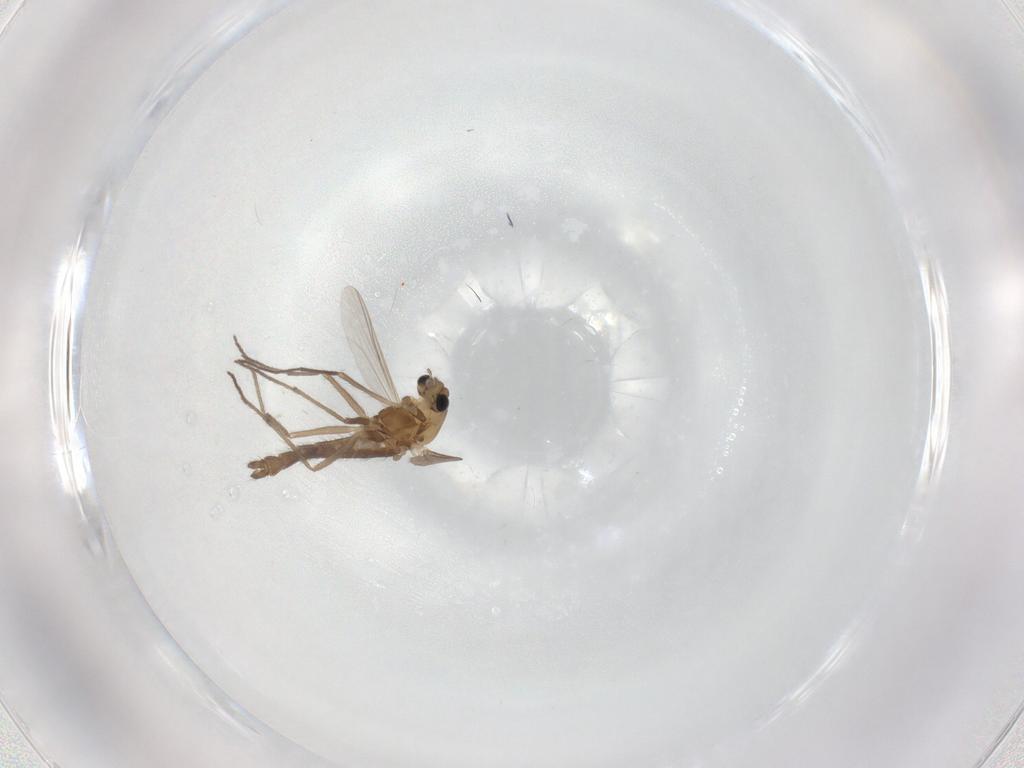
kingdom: Animalia
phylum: Arthropoda
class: Insecta
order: Diptera
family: Chironomidae
